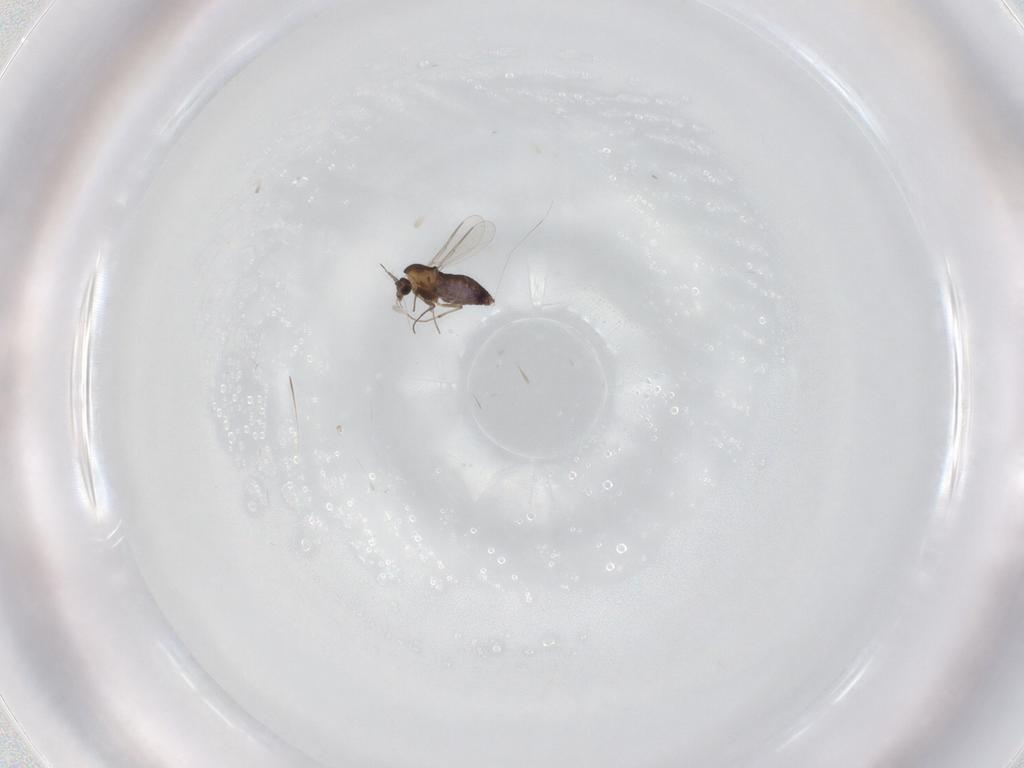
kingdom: Animalia
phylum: Arthropoda
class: Insecta
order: Diptera
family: Chironomidae
